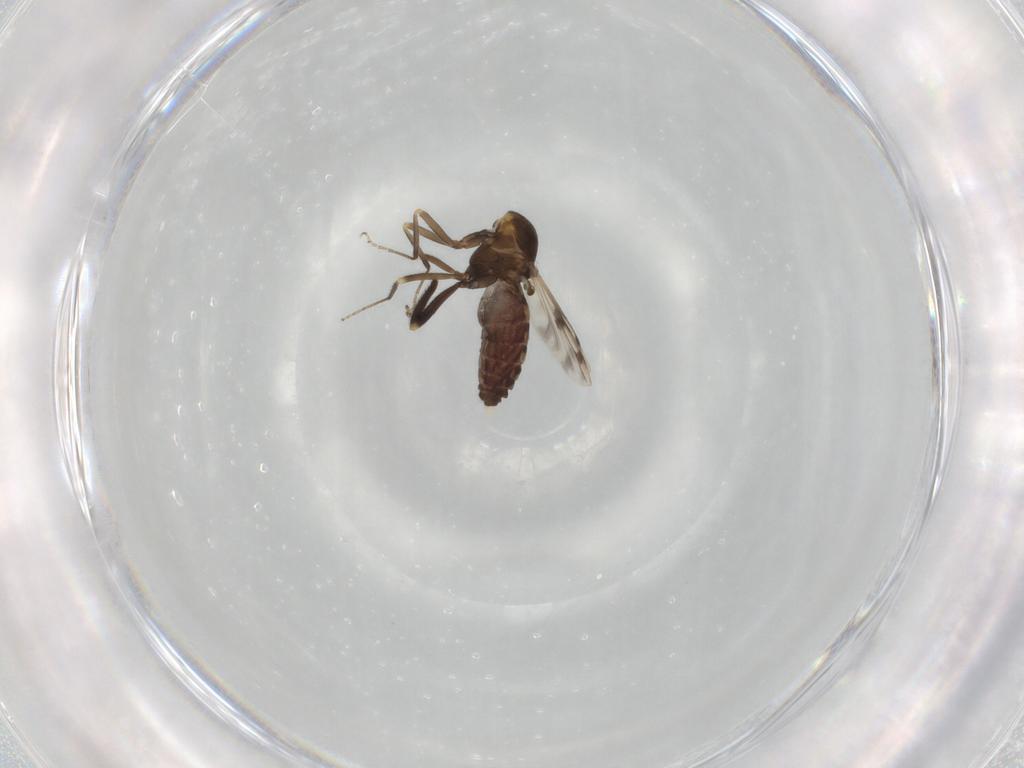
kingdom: Animalia
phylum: Arthropoda
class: Insecta
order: Diptera
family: Ceratopogonidae
